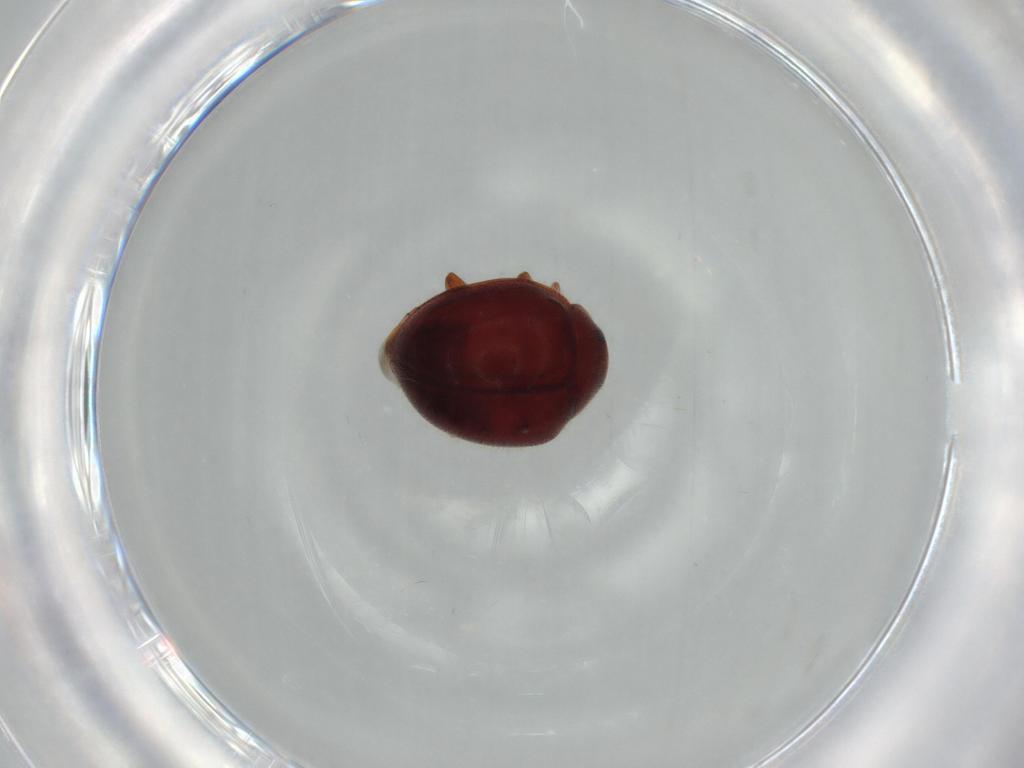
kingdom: Animalia
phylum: Arthropoda
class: Insecta
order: Coleoptera
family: Coccinellidae
